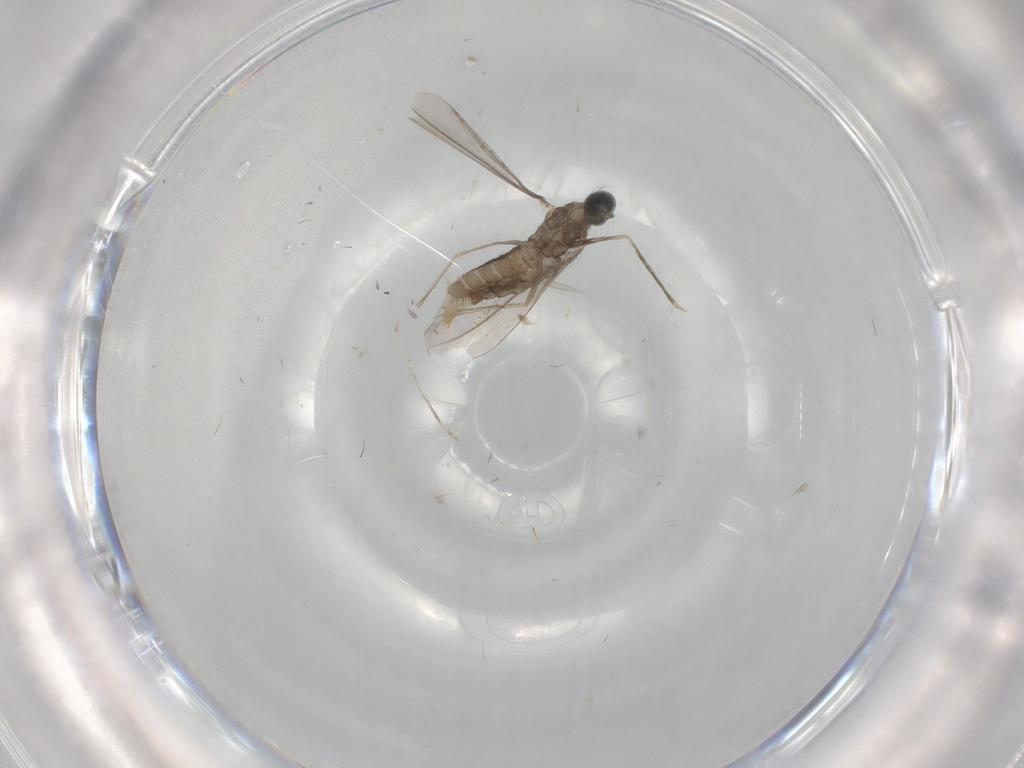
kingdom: Animalia
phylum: Arthropoda
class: Insecta
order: Diptera
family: Cecidomyiidae
